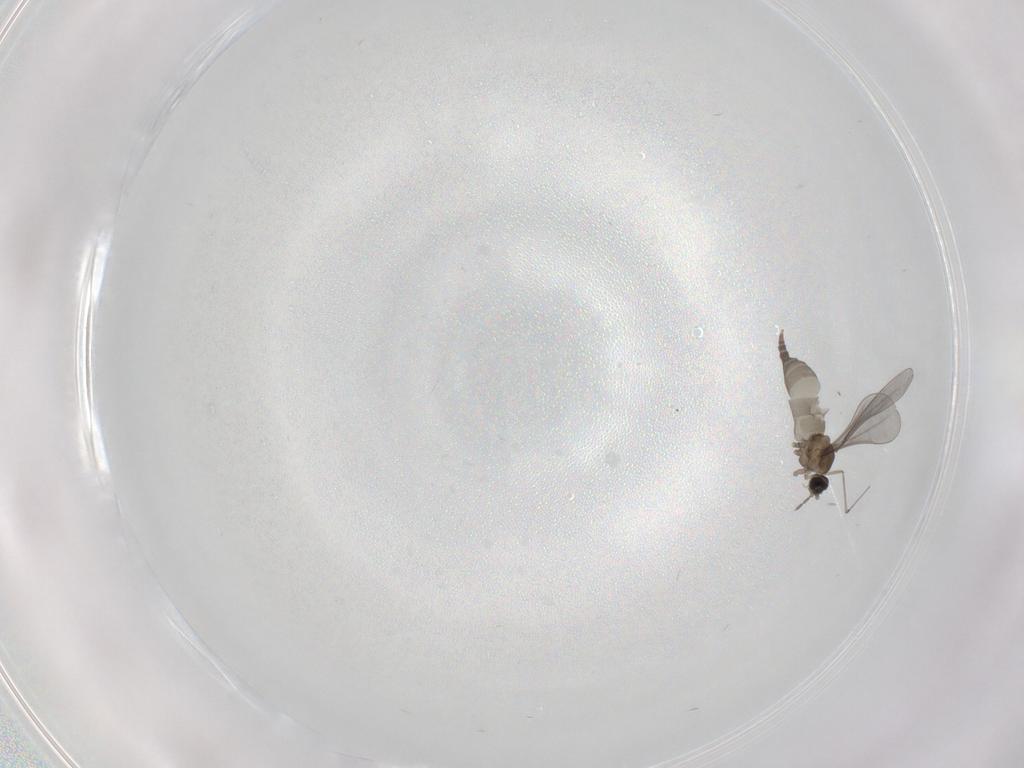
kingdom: Animalia
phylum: Arthropoda
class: Insecta
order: Diptera
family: Cecidomyiidae
